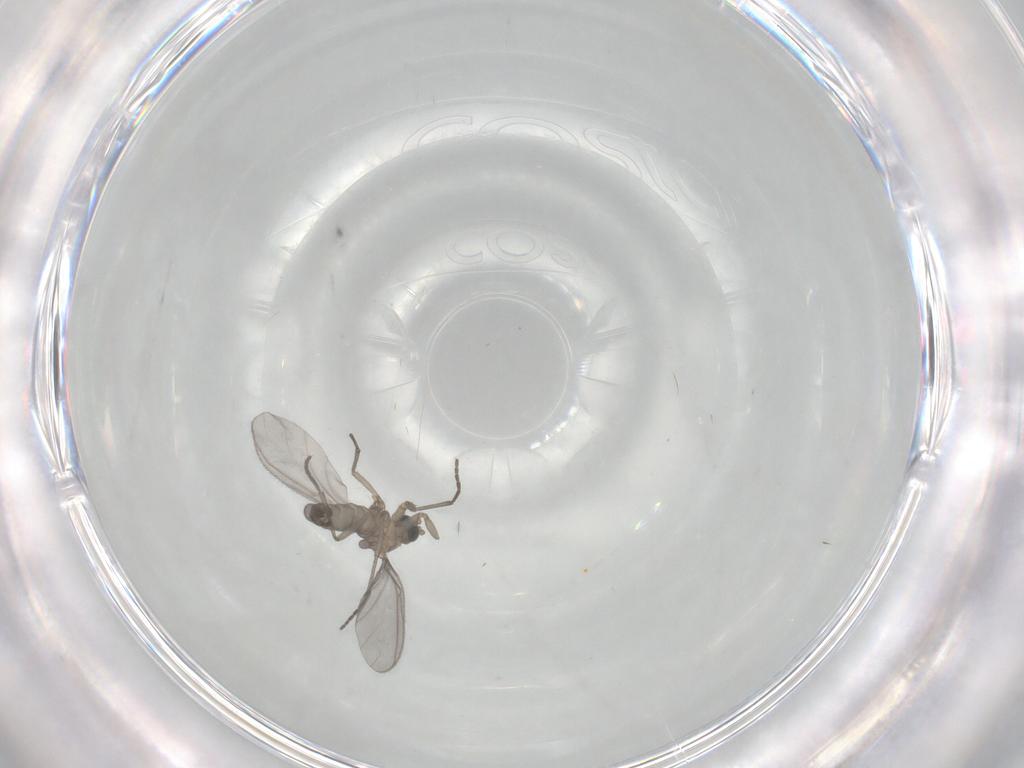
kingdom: Animalia
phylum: Arthropoda
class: Insecta
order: Diptera
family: Sciaridae
